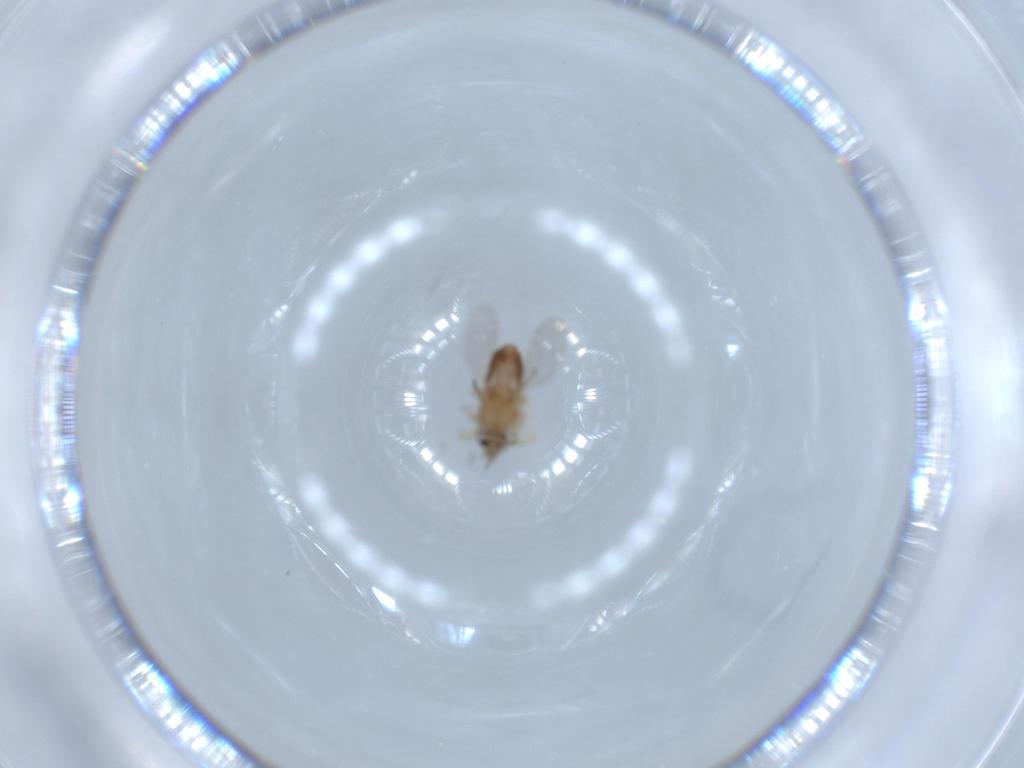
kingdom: Animalia
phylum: Arthropoda
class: Insecta
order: Diptera
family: Ceratopogonidae
